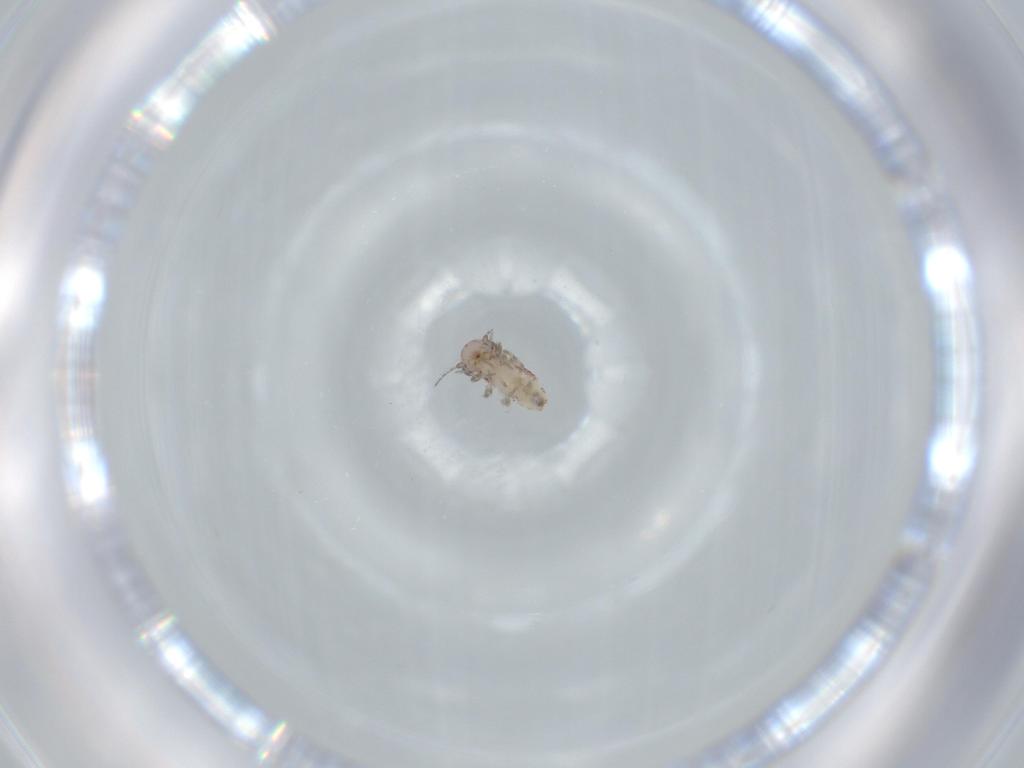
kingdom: Animalia
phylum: Arthropoda
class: Insecta
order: Psocodea
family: Amphientomidae
